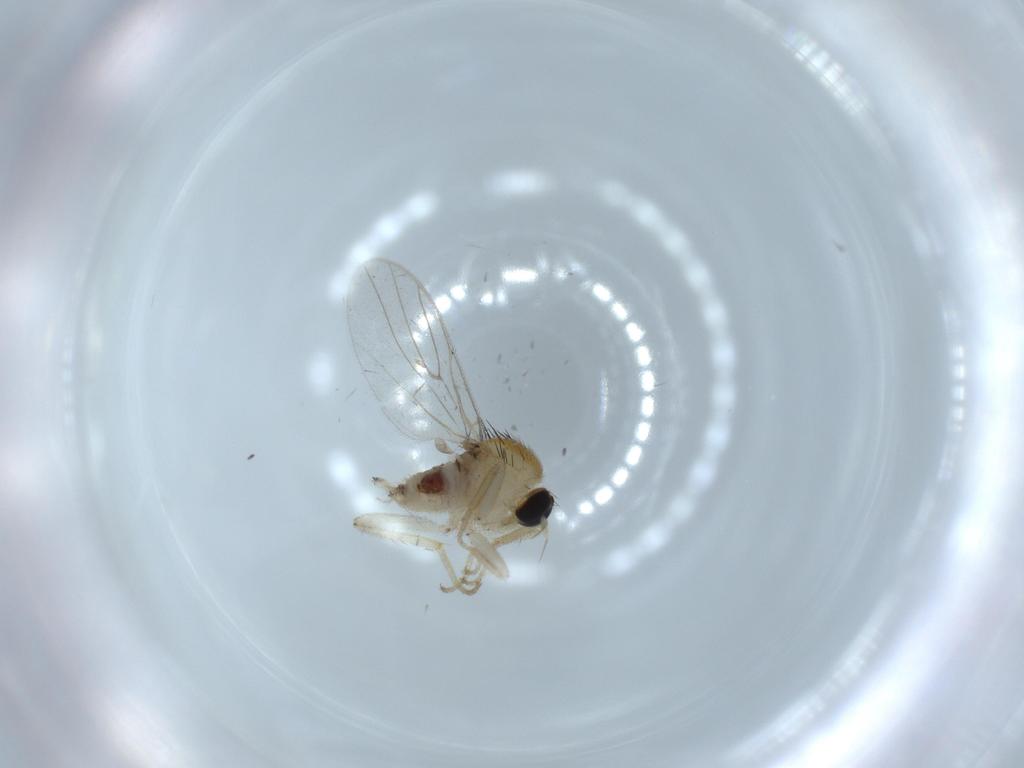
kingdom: Animalia
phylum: Arthropoda
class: Insecta
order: Diptera
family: Hybotidae
